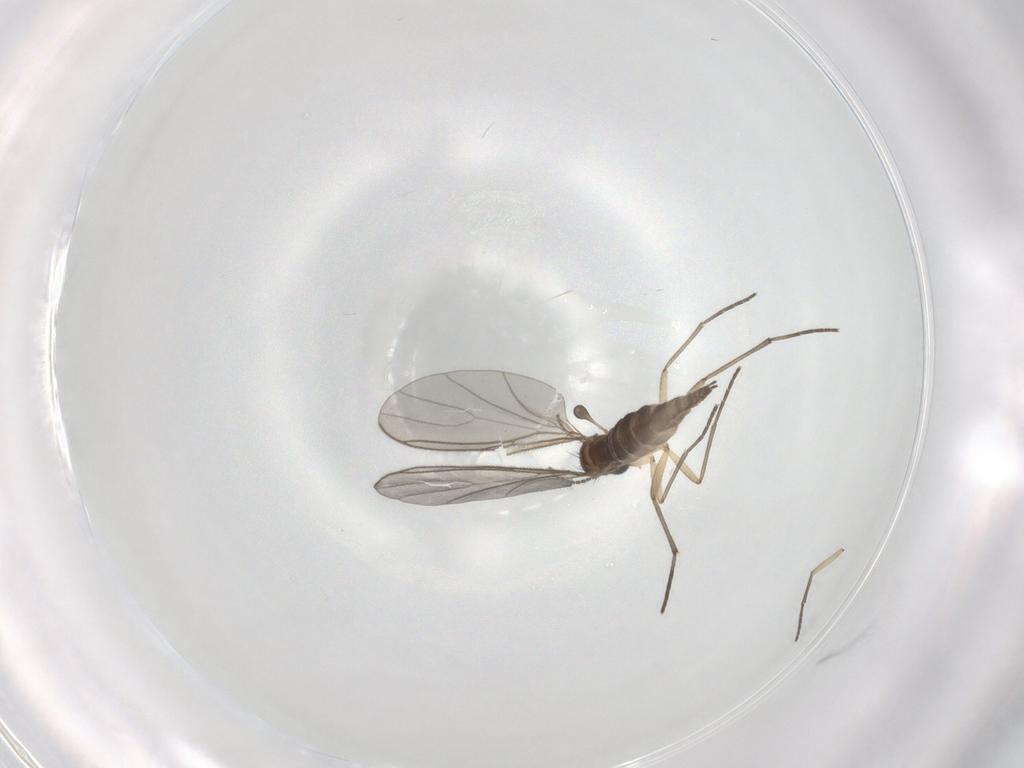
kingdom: Animalia
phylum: Arthropoda
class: Insecta
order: Diptera
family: Sciaridae
